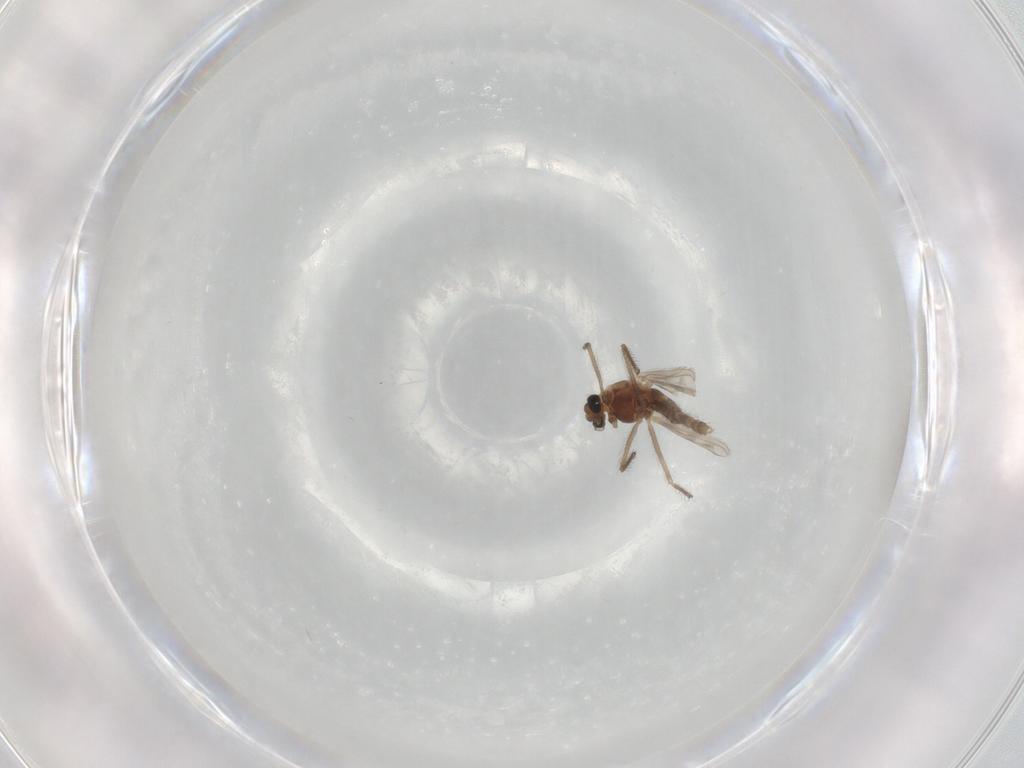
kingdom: Animalia
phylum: Arthropoda
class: Insecta
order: Diptera
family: Chironomidae
